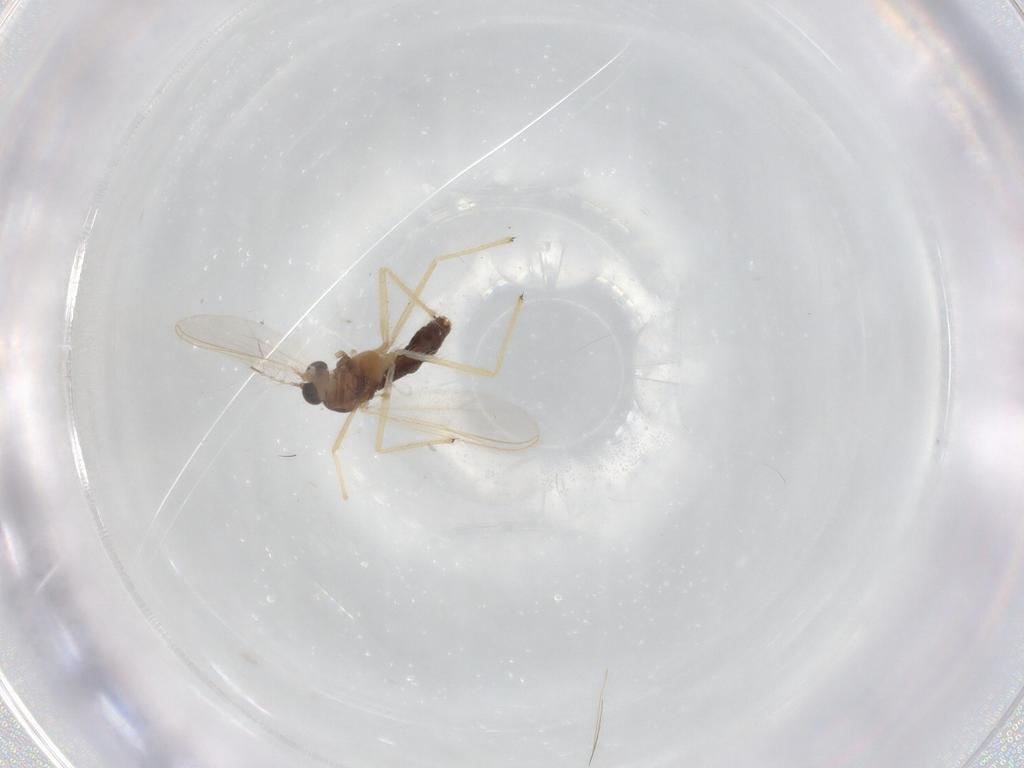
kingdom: Animalia
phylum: Arthropoda
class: Insecta
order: Diptera
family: Chironomidae
